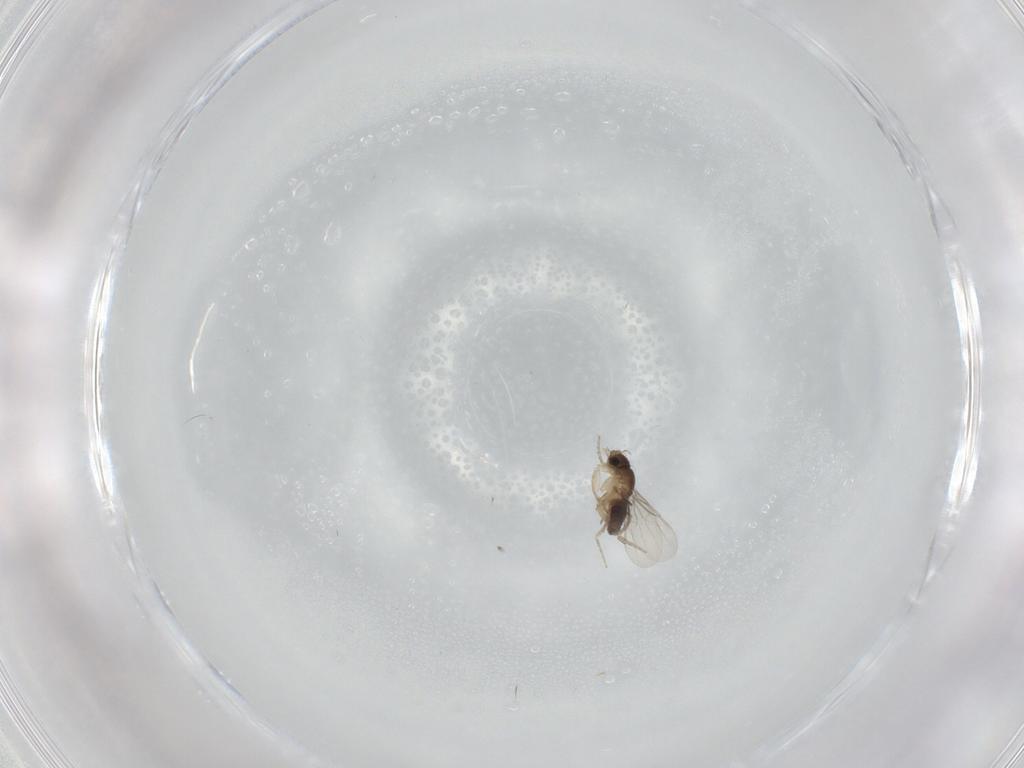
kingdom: Animalia
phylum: Arthropoda
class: Insecta
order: Diptera
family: Phoridae
